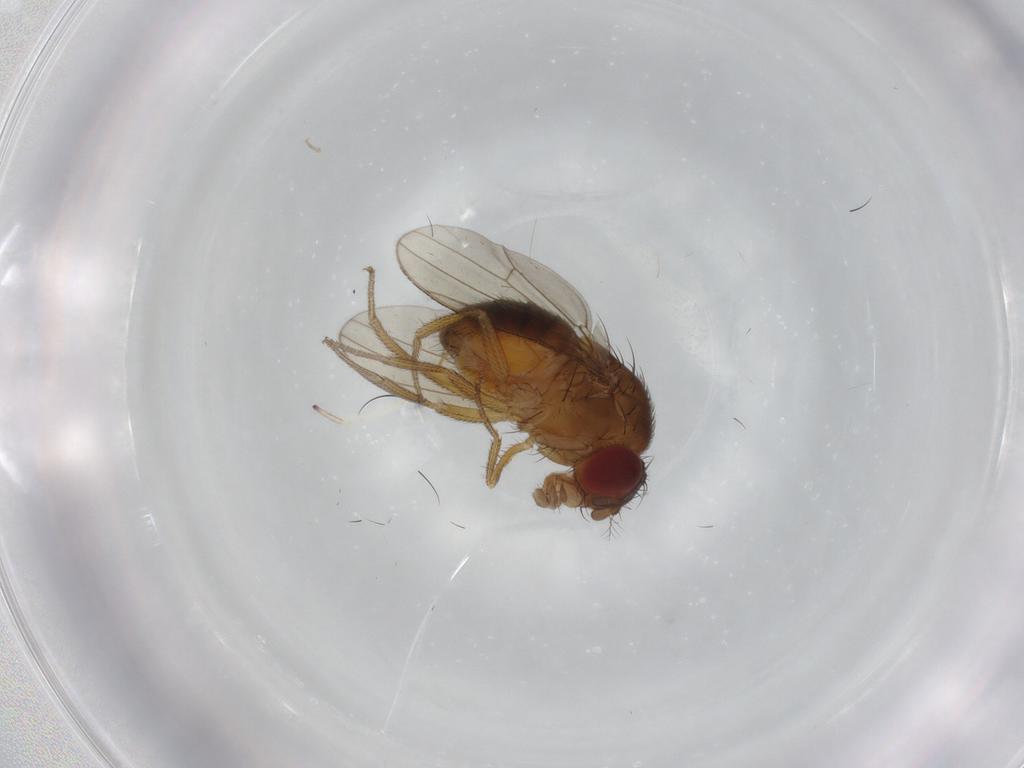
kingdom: Animalia
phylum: Arthropoda
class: Insecta
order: Diptera
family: Drosophilidae
